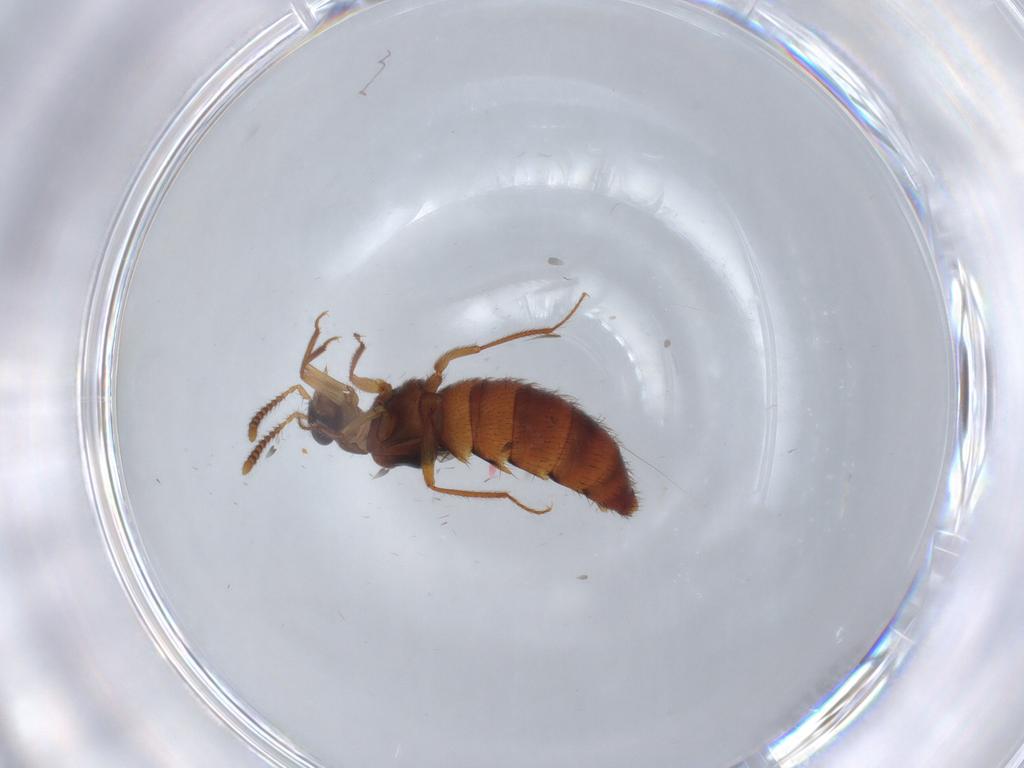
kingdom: Animalia
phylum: Arthropoda
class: Insecta
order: Coleoptera
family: Staphylinidae
